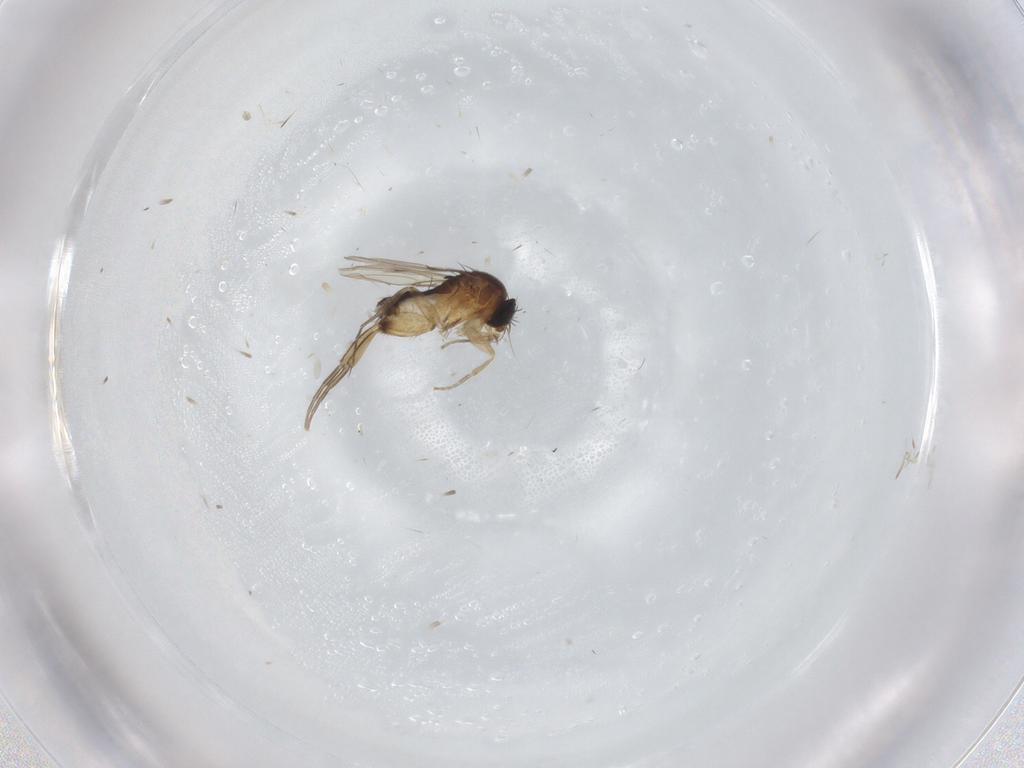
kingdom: Animalia
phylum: Arthropoda
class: Insecta
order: Diptera
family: Lonchaeidae
